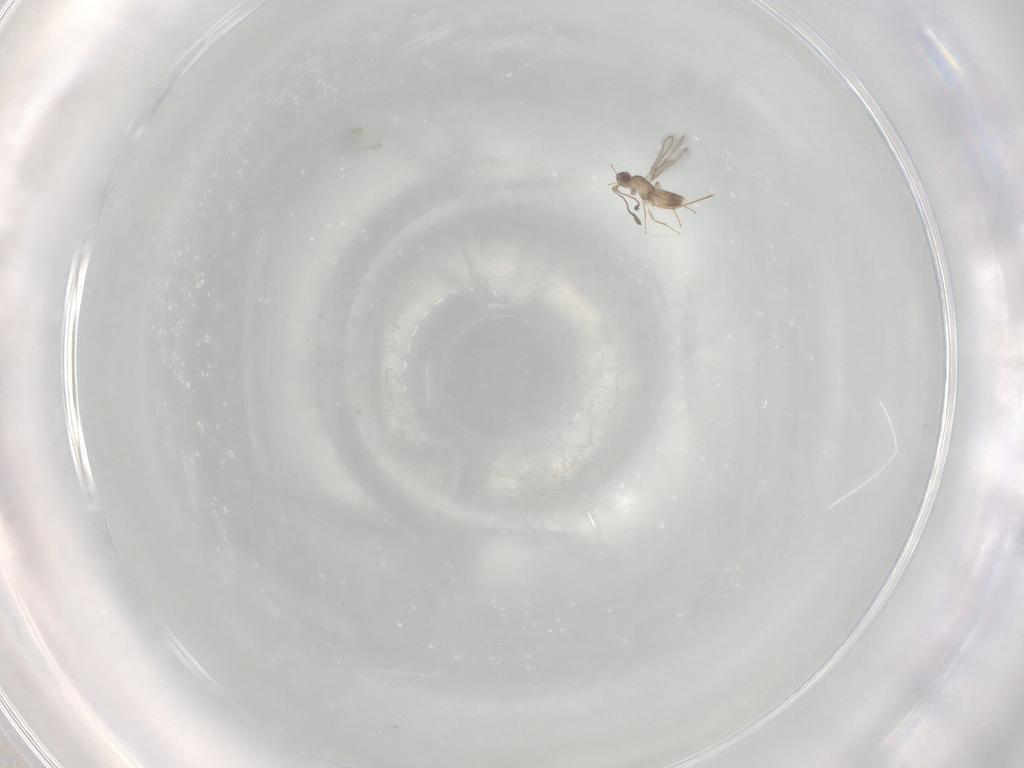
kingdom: Animalia
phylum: Arthropoda
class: Insecta
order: Hymenoptera
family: Mymaridae
